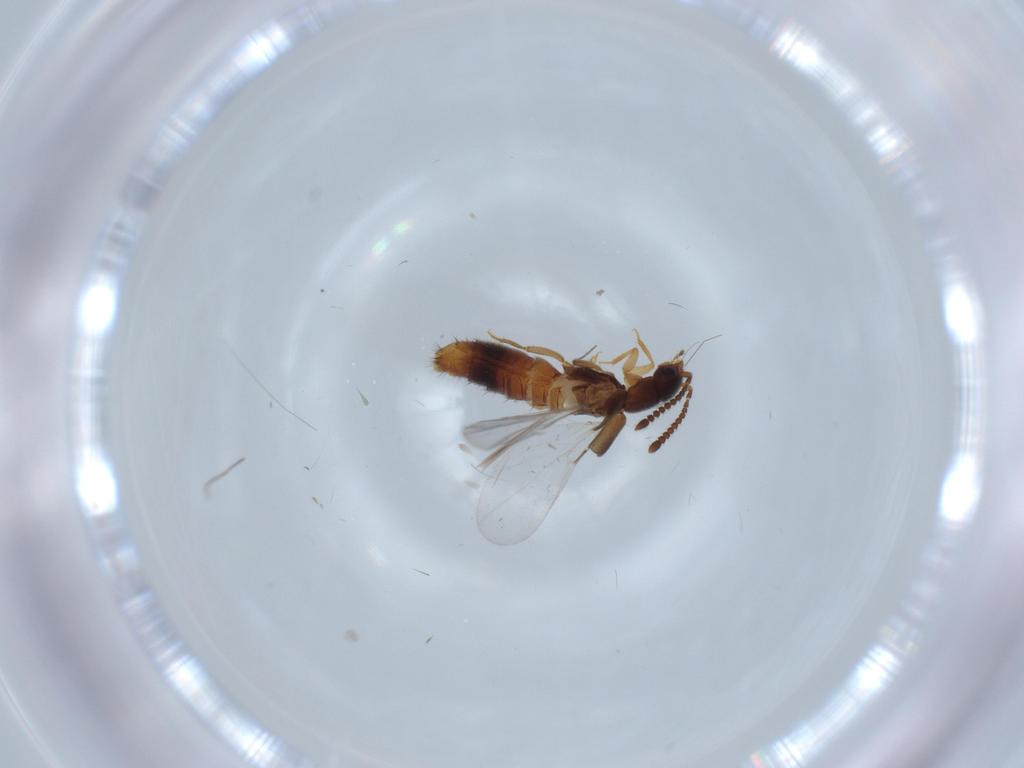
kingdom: Animalia
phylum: Arthropoda
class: Insecta
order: Coleoptera
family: Staphylinidae
